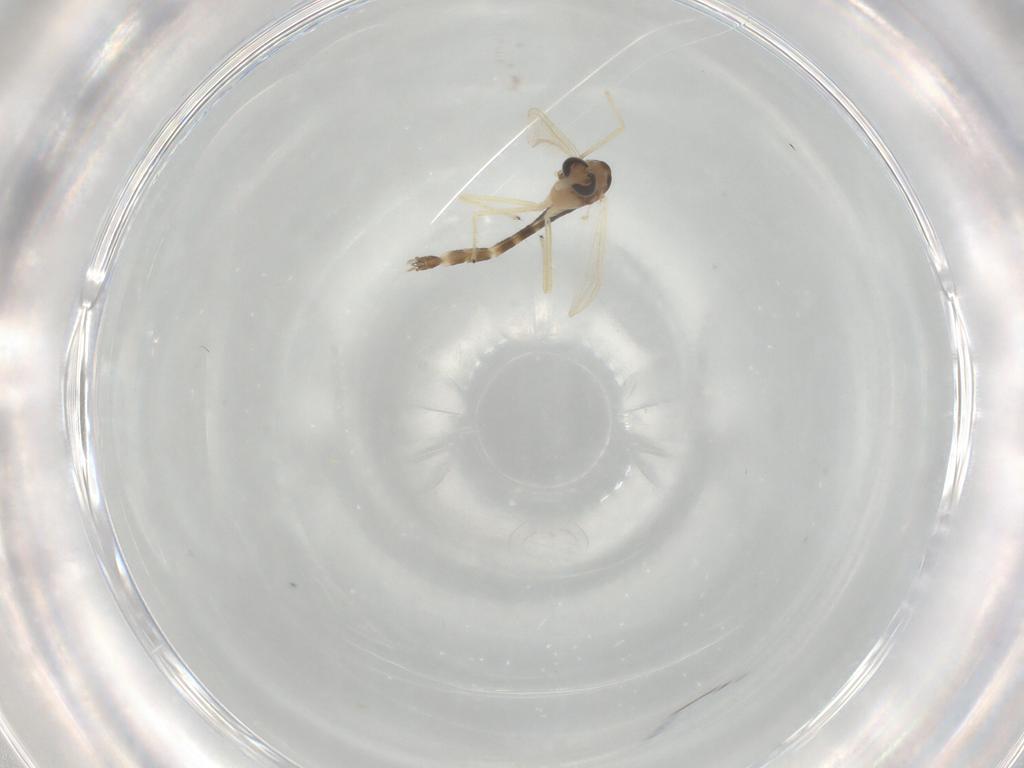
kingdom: Animalia
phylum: Arthropoda
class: Insecta
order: Diptera
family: Chironomidae
